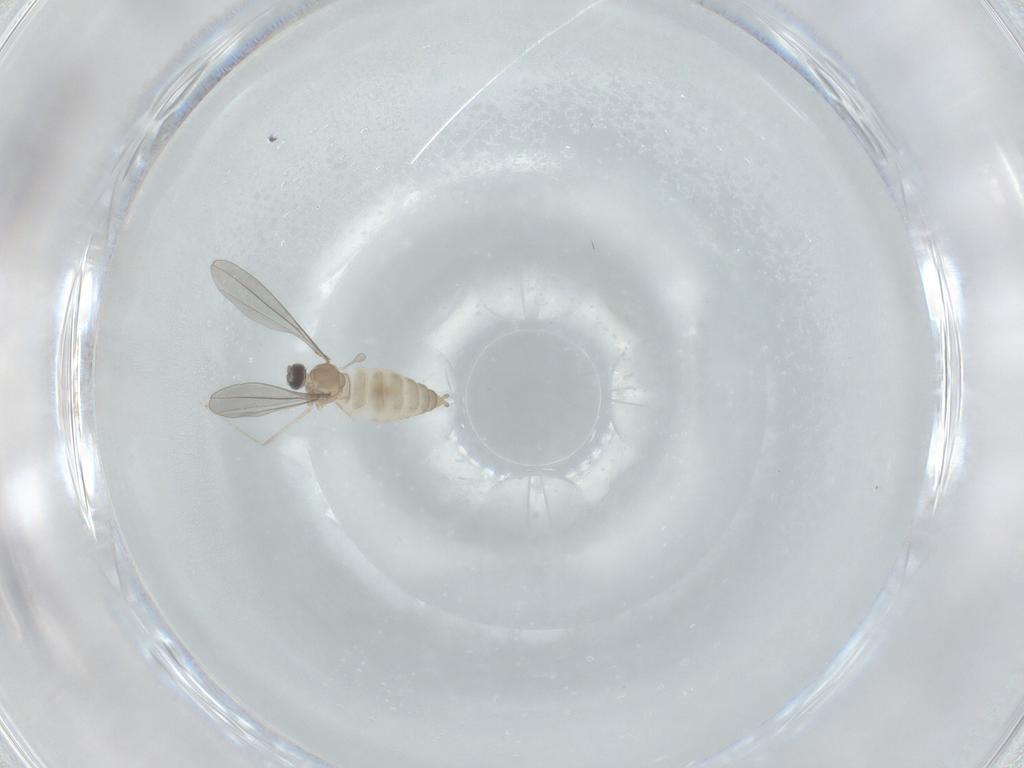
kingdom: Animalia
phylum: Arthropoda
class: Insecta
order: Diptera
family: Cecidomyiidae
